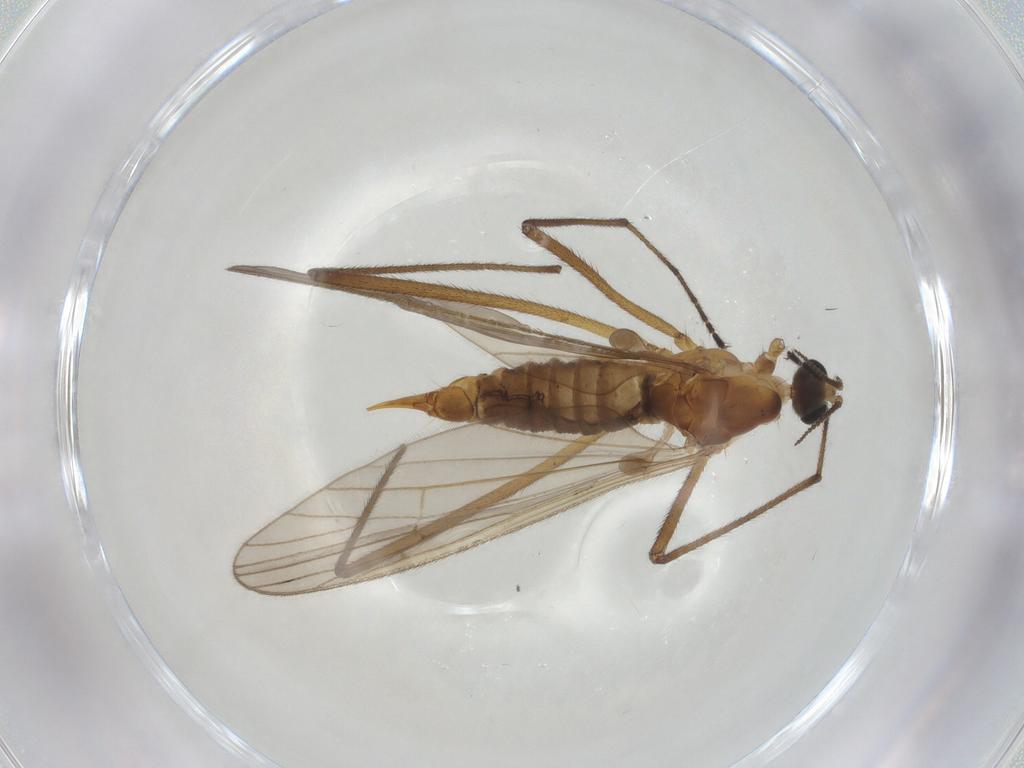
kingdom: Animalia
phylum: Arthropoda
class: Insecta
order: Diptera
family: Limoniidae
